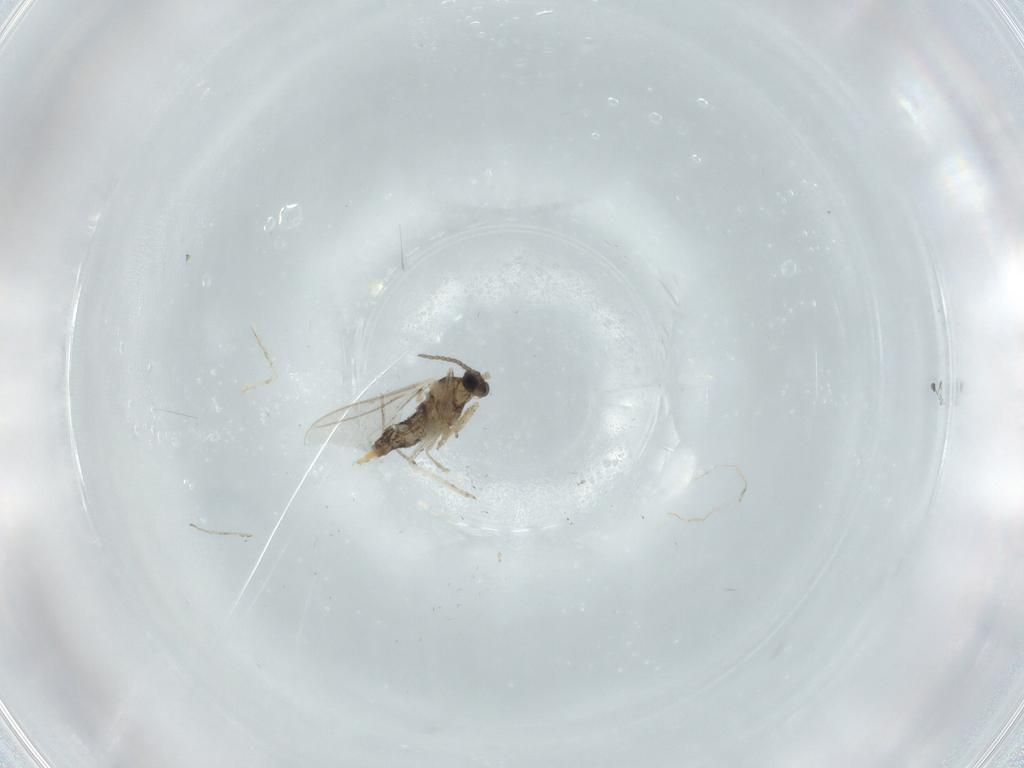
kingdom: Animalia
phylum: Arthropoda
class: Insecta
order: Diptera
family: Cecidomyiidae
